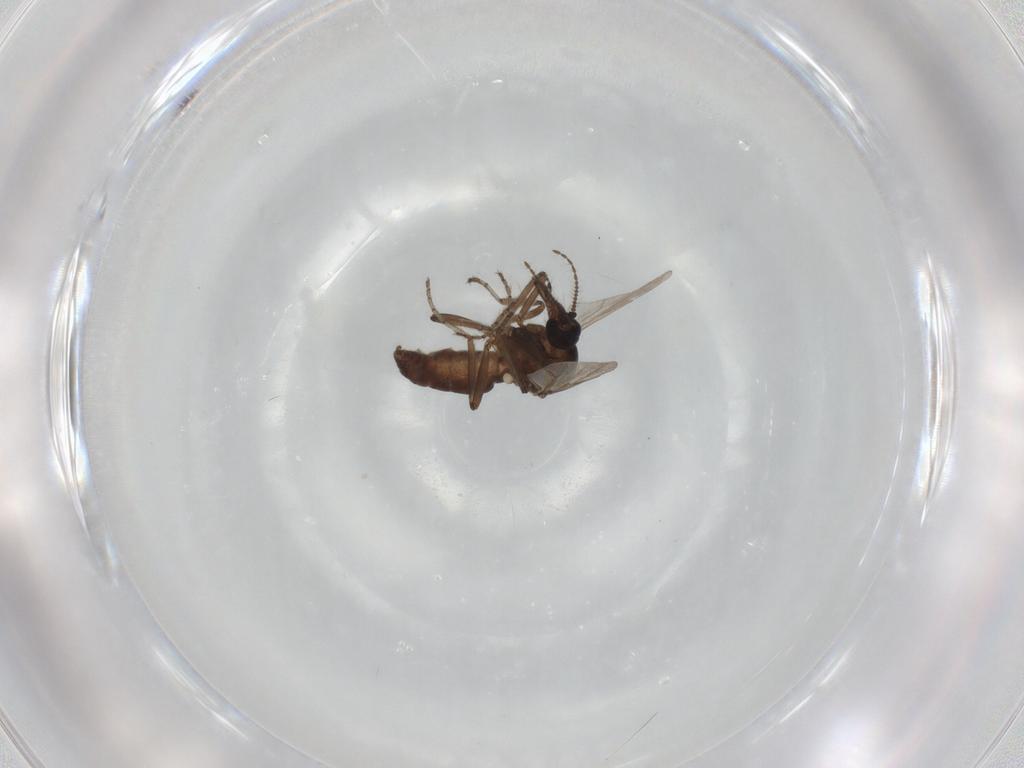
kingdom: Animalia
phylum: Arthropoda
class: Insecta
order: Diptera
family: Ceratopogonidae
